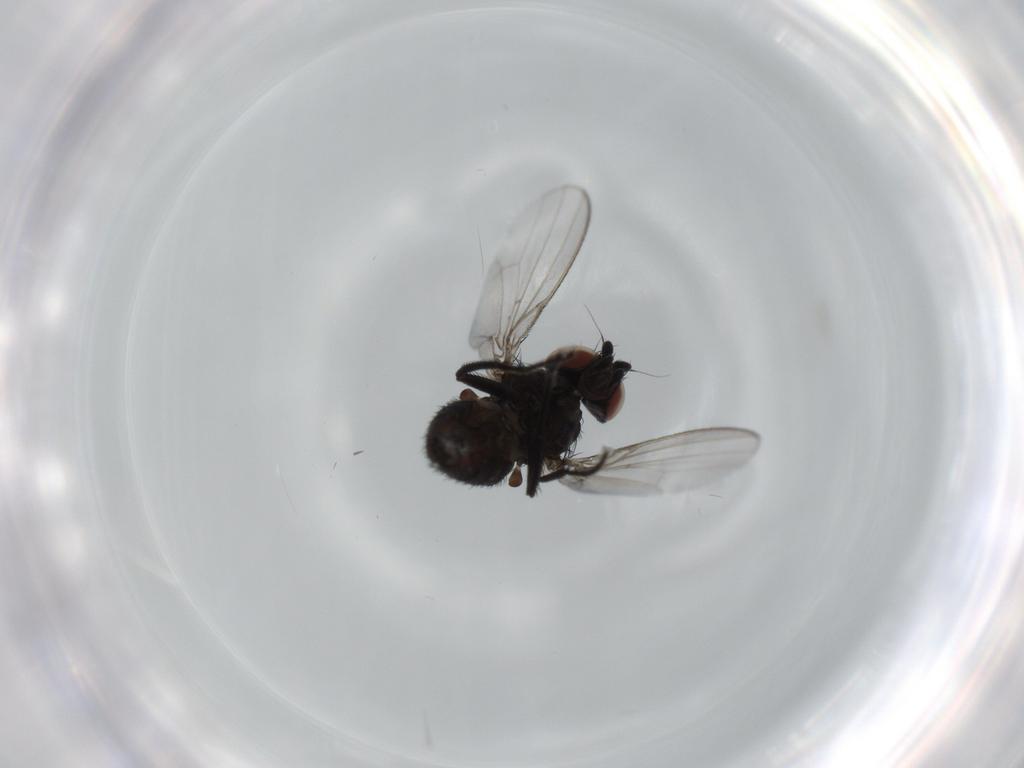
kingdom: Animalia
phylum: Arthropoda
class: Insecta
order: Diptera
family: Milichiidae
